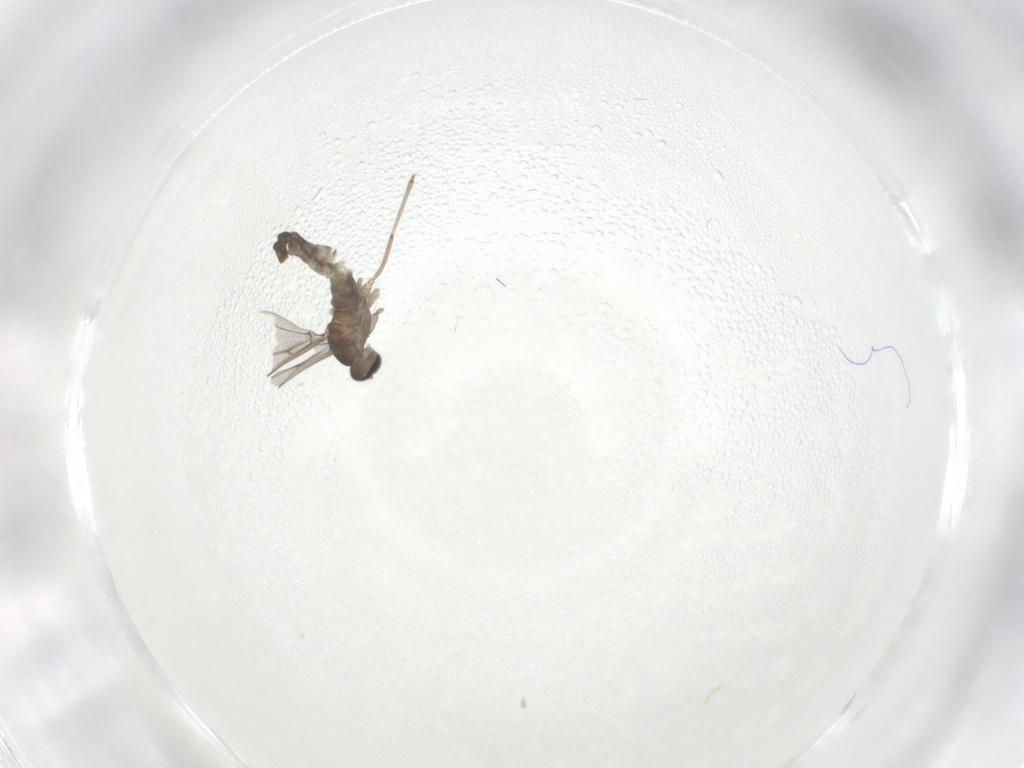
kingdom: Animalia
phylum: Arthropoda
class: Insecta
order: Diptera
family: Cecidomyiidae
